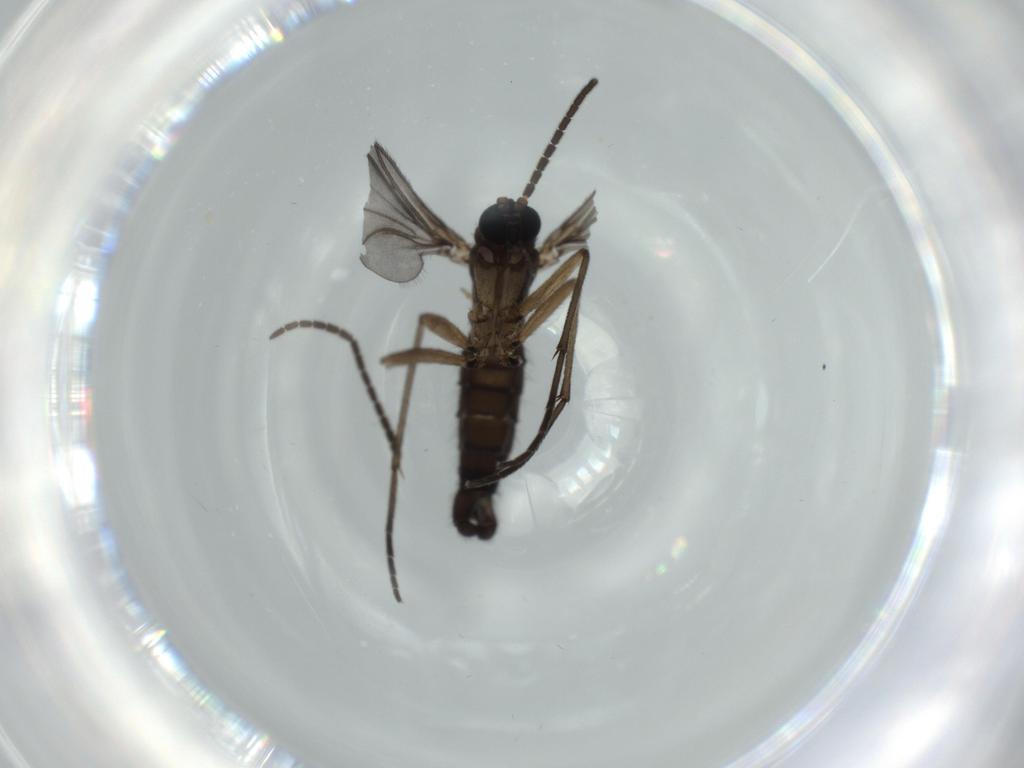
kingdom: Animalia
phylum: Arthropoda
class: Insecta
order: Diptera
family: Sciaridae
